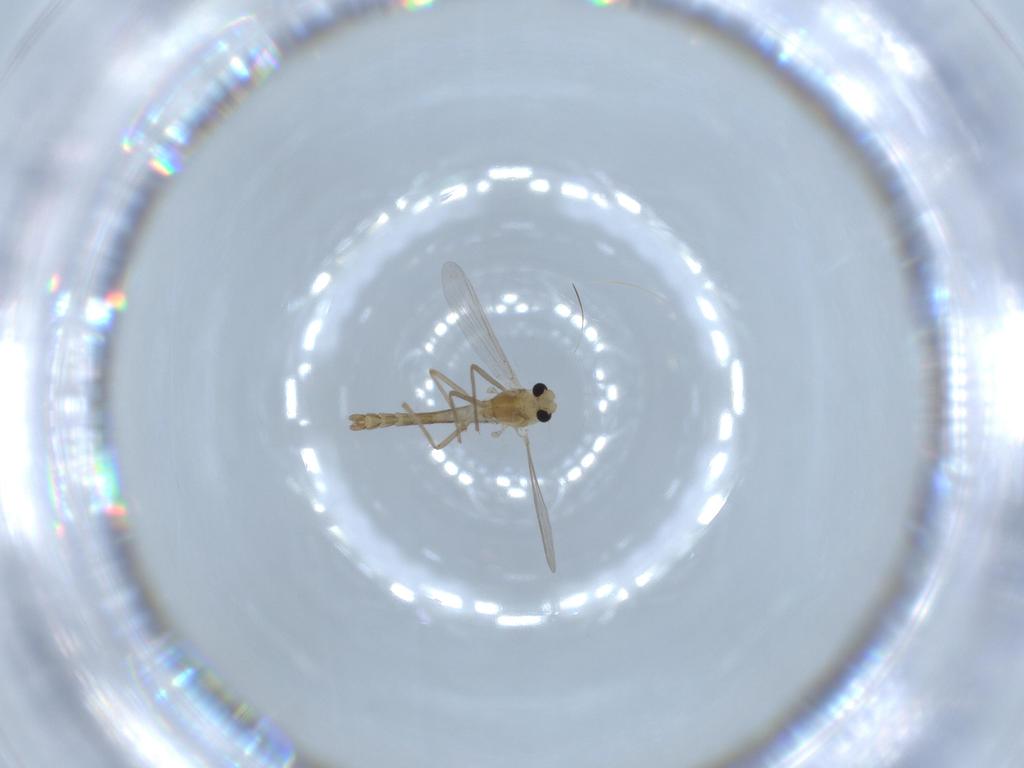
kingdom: Animalia
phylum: Arthropoda
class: Insecta
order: Diptera
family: Chironomidae
